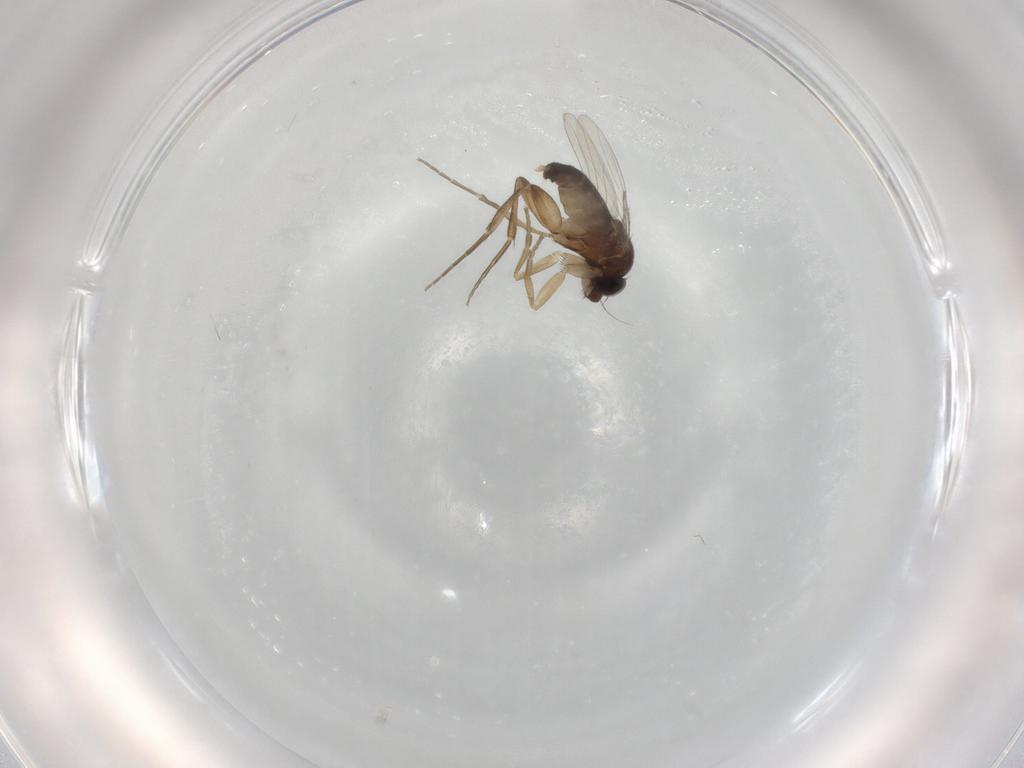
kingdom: Animalia
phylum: Arthropoda
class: Insecta
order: Diptera
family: Phoridae
